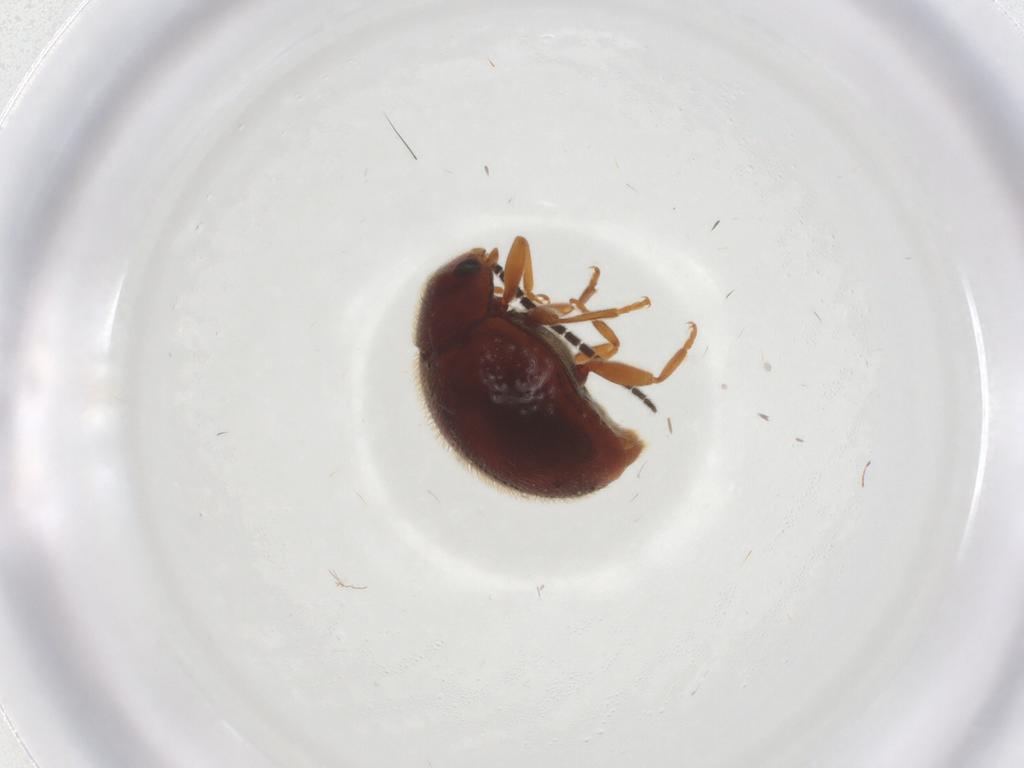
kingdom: Animalia
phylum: Arthropoda
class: Insecta
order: Coleoptera
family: Coccinellidae
